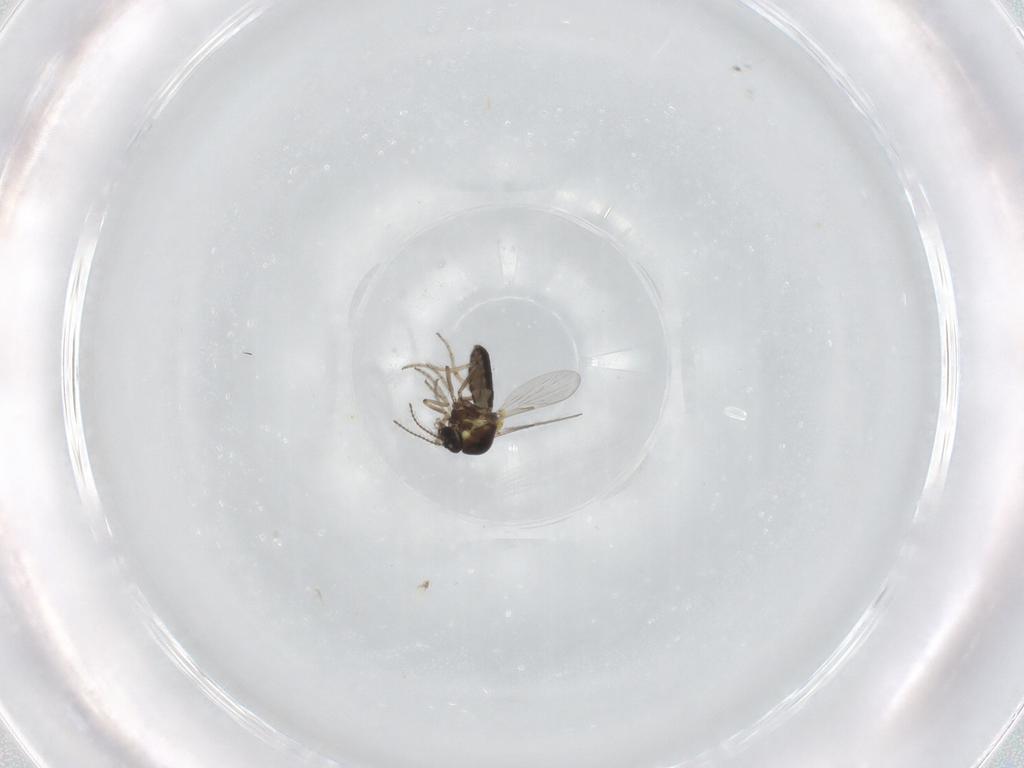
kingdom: Animalia
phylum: Arthropoda
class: Insecta
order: Diptera
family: Ceratopogonidae
